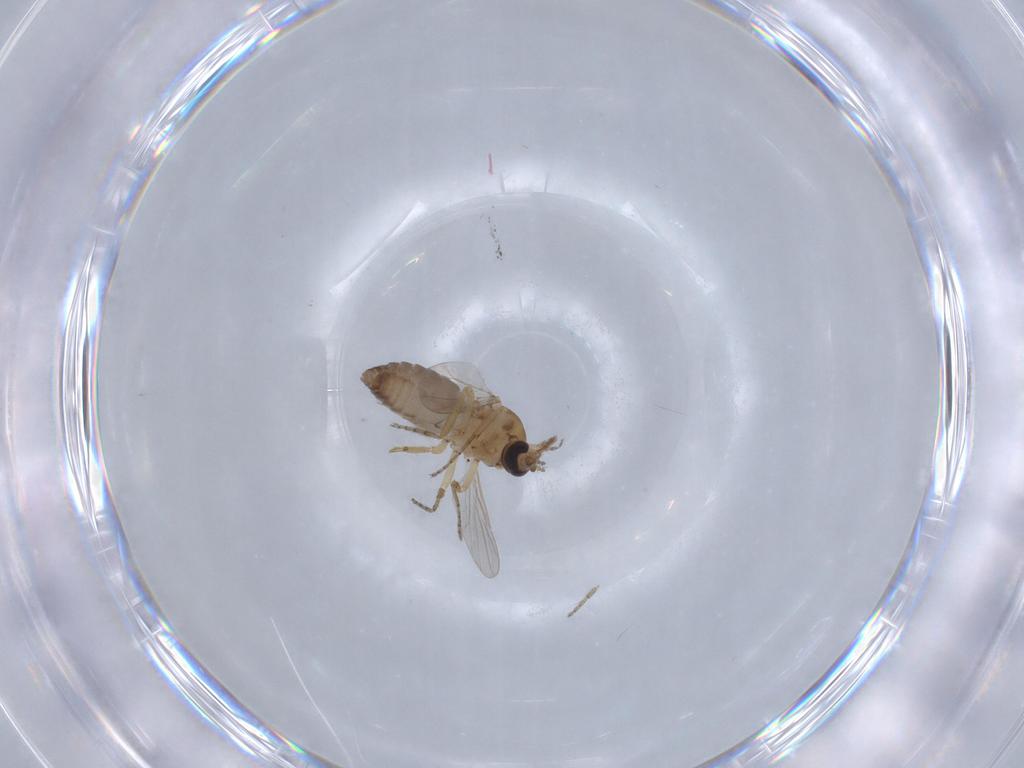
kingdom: Animalia
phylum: Arthropoda
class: Insecta
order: Diptera
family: Ceratopogonidae
